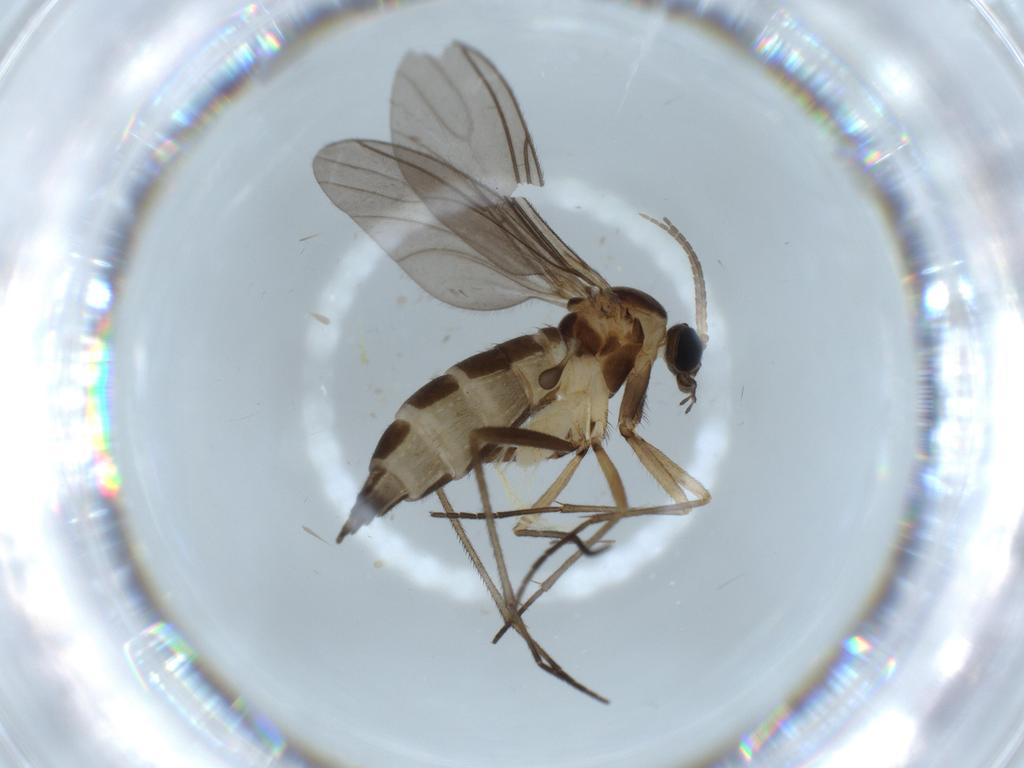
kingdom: Animalia
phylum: Arthropoda
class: Insecta
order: Diptera
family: Sciaridae
